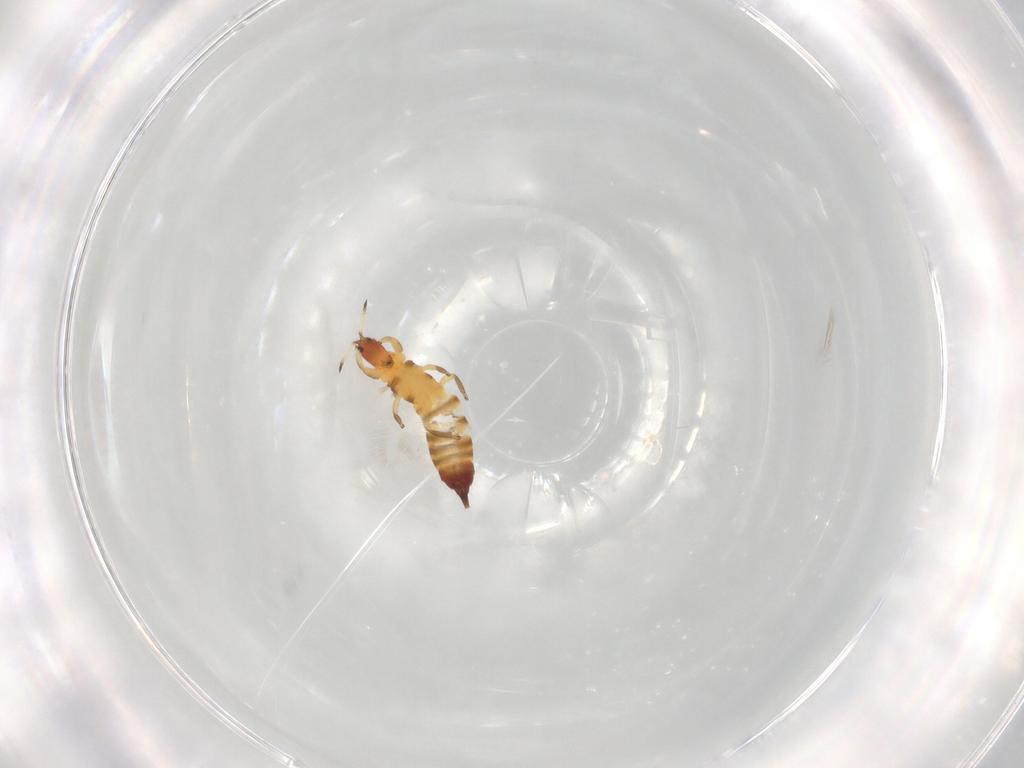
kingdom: Animalia
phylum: Arthropoda
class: Insecta
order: Thysanoptera
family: Phlaeothripidae
